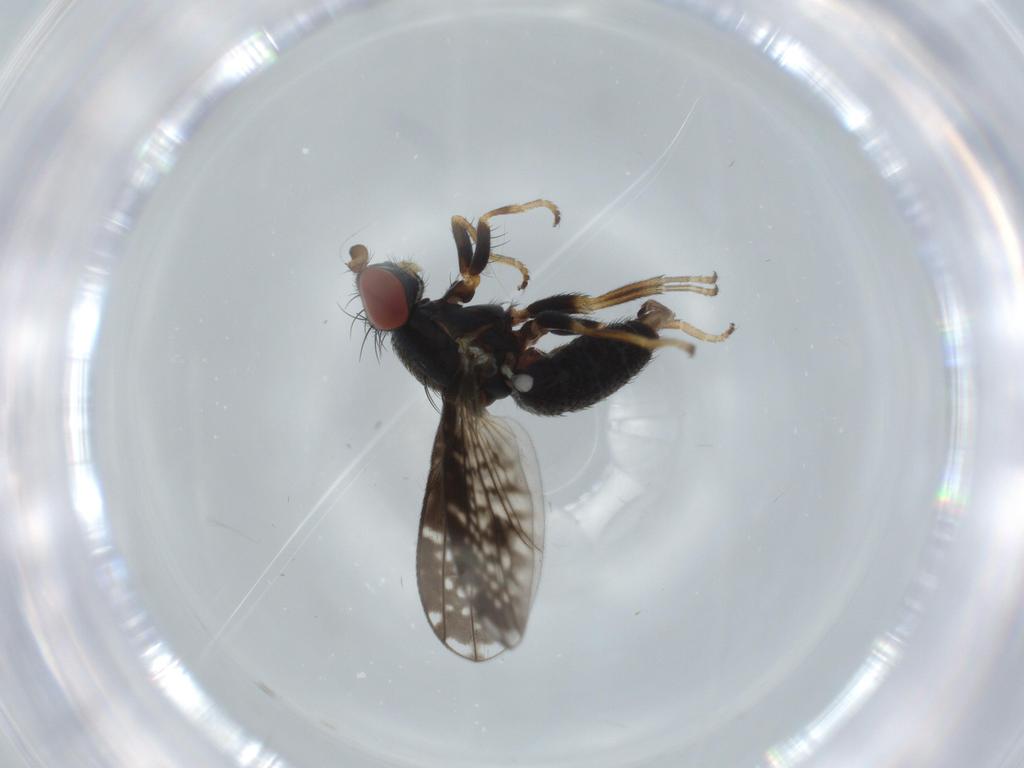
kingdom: Animalia
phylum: Arthropoda
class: Insecta
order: Diptera
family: Chamaemyiidae
